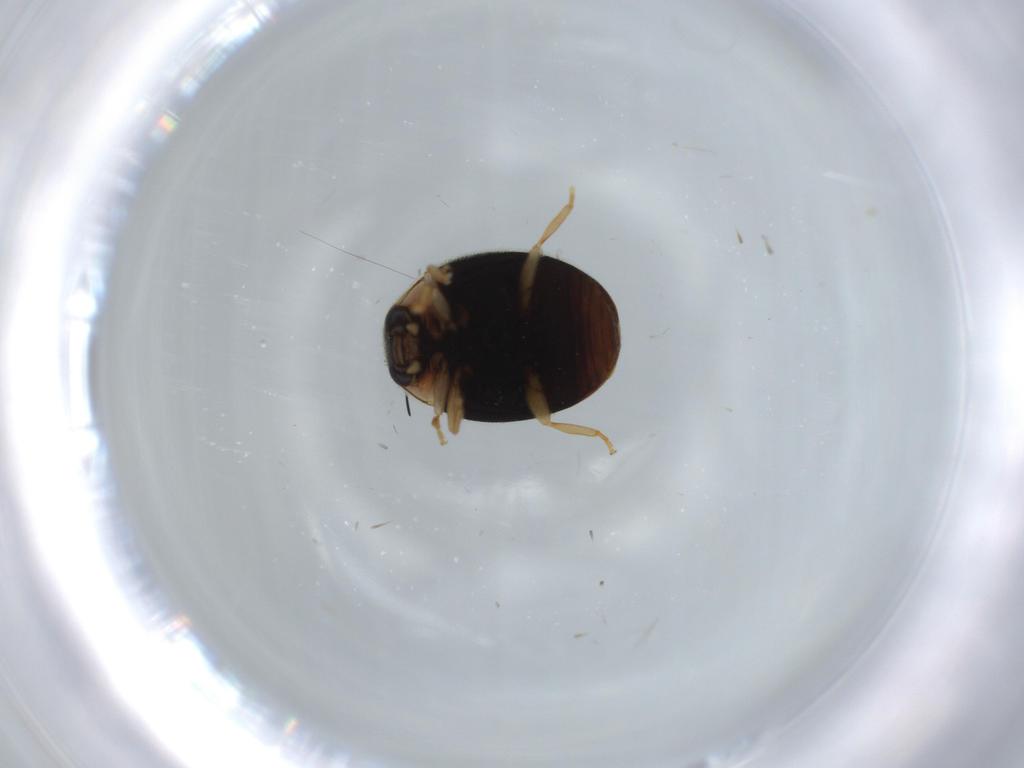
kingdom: Animalia
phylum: Arthropoda
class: Insecta
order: Coleoptera
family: Coccinellidae
